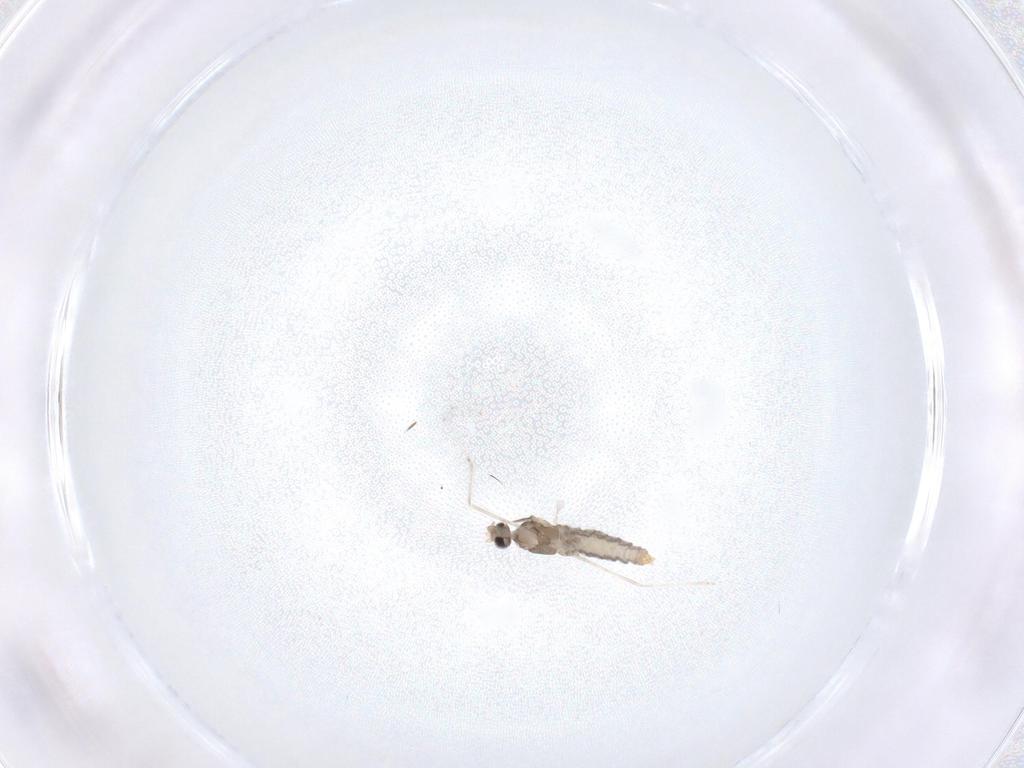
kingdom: Animalia
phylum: Arthropoda
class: Insecta
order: Diptera
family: Cecidomyiidae
